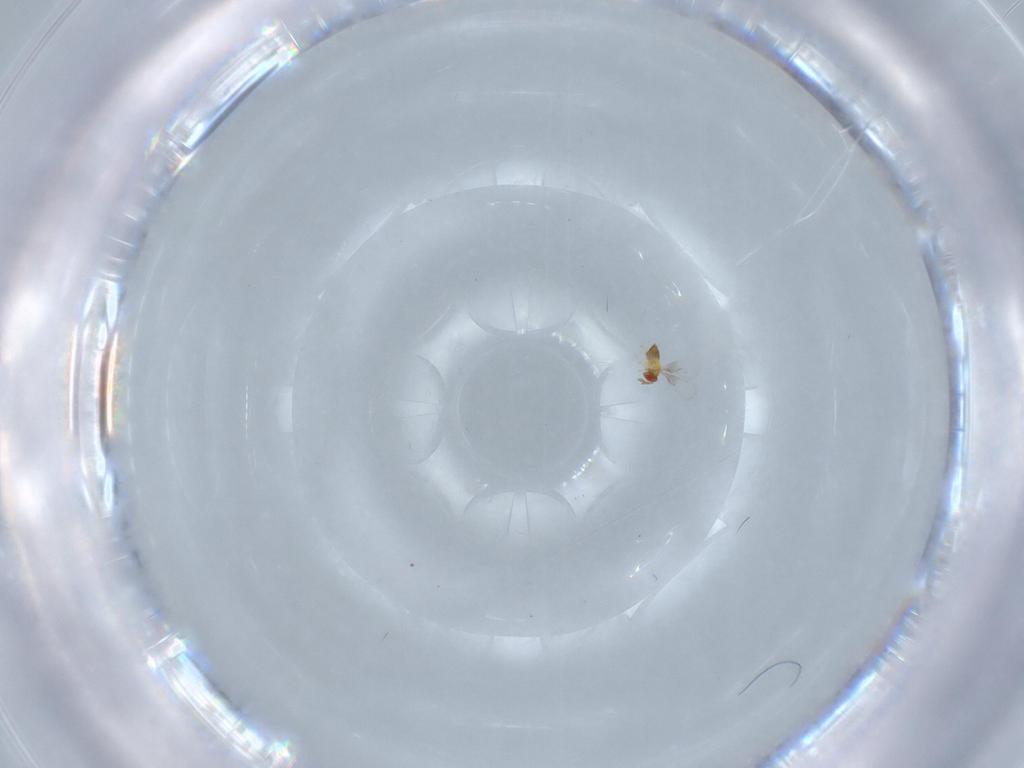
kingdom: Animalia
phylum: Arthropoda
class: Insecta
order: Hymenoptera
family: Trichogrammatidae
